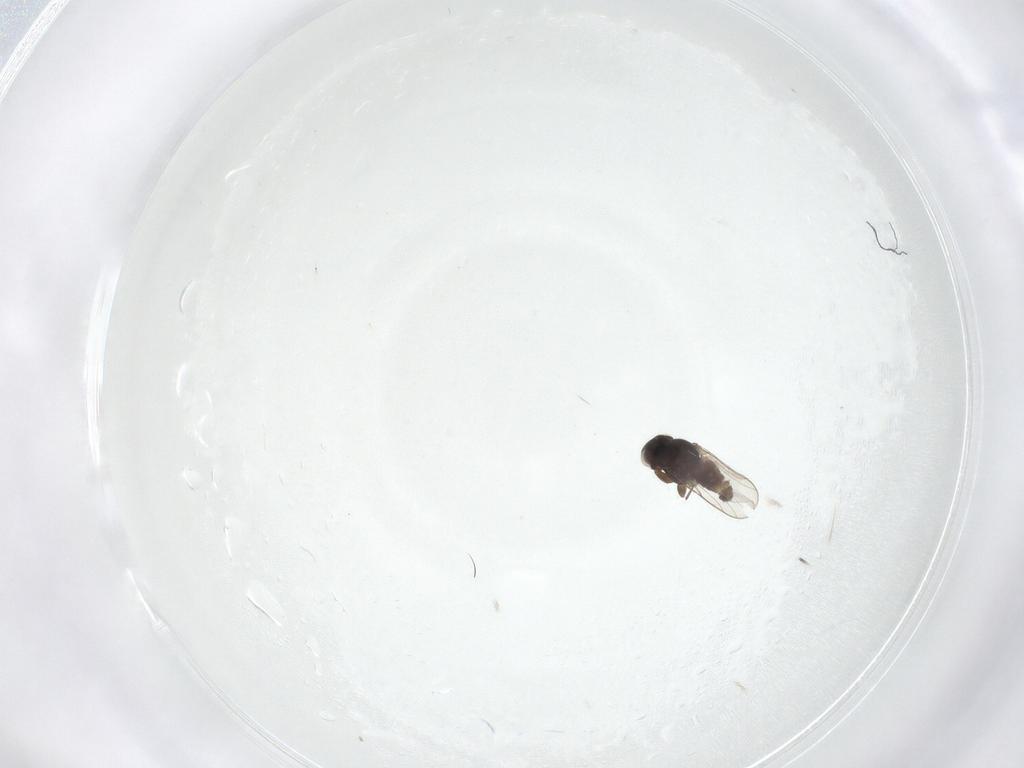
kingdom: Animalia
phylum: Arthropoda
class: Insecta
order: Diptera
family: Chloropidae
